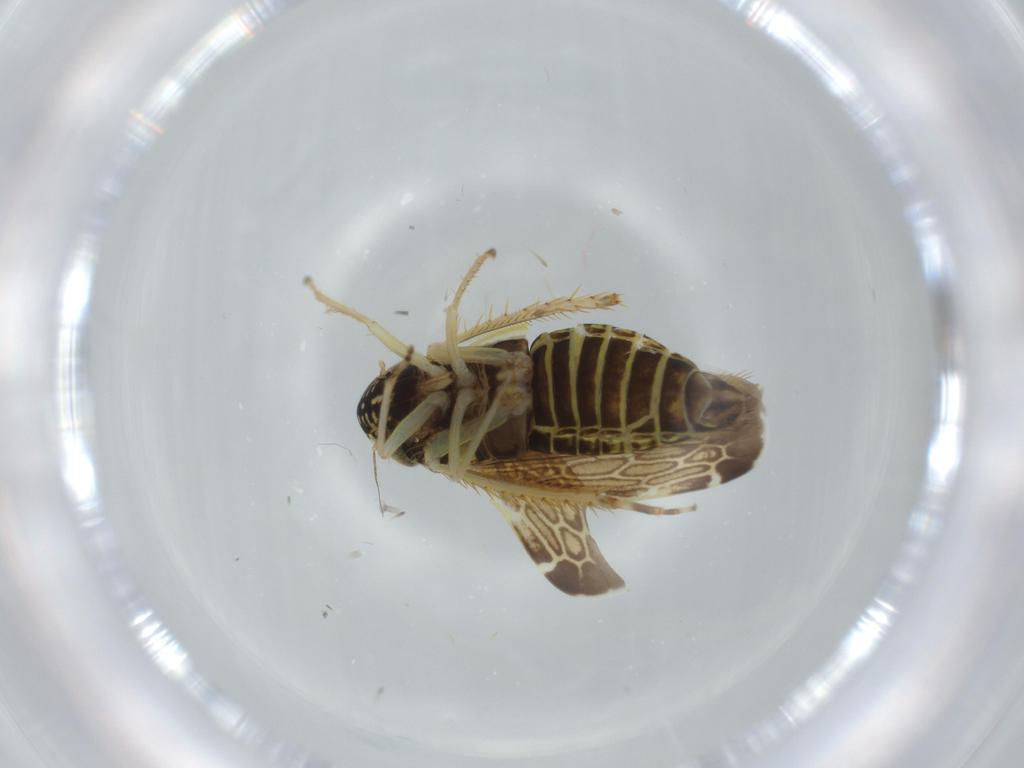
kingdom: Animalia
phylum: Arthropoda
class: Insecta
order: Hemiptera
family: Cicadellidae
